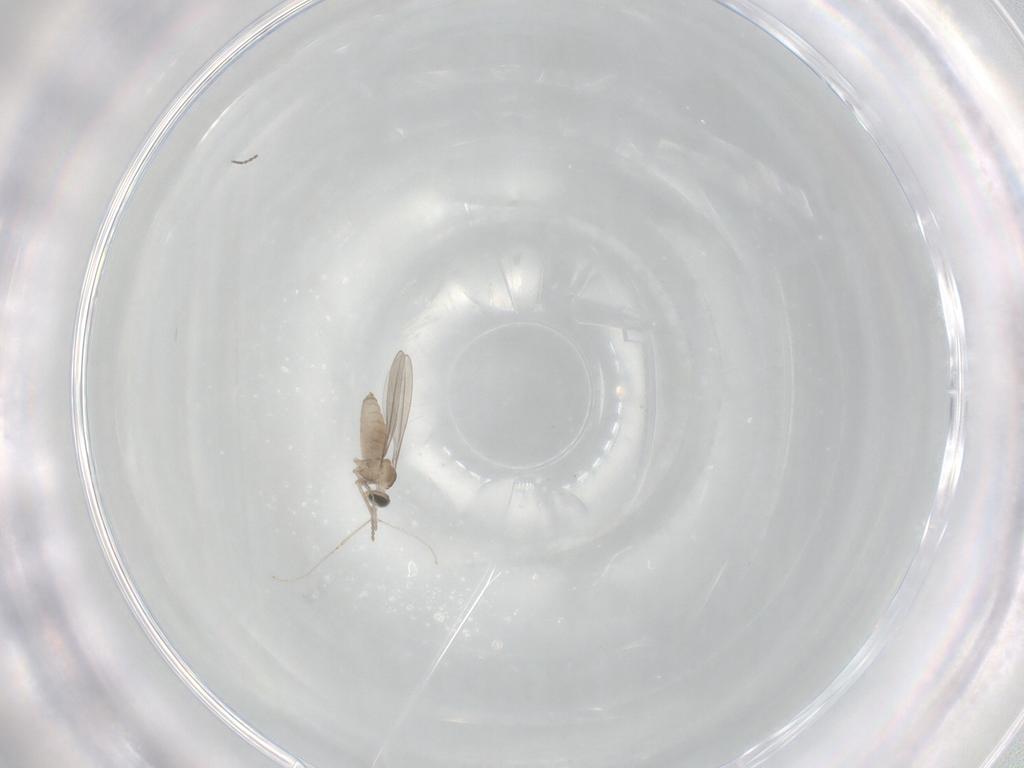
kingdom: Animalia
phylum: Arthropoda
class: Insecta
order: Diptera
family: Cecidomyiidae
